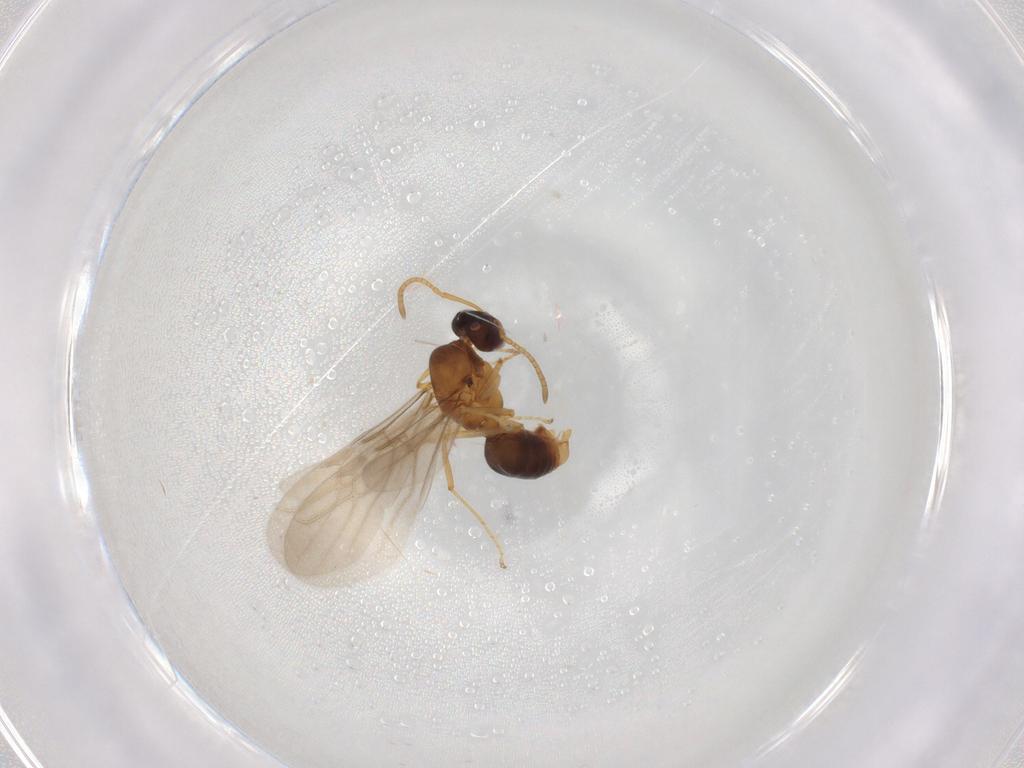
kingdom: Animalia
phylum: Arthropoda
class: Insecta
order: Hymenoptera
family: Formicidae
